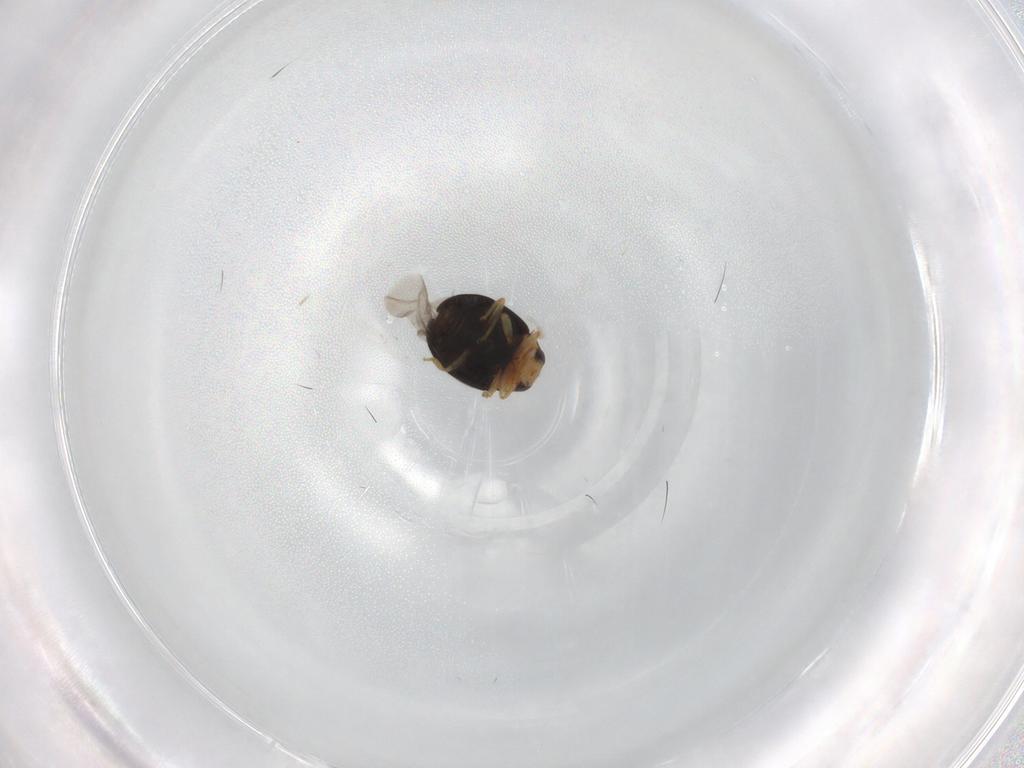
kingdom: Animalia
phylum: Arthropoda
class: Insecta
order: Coleoptera
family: Coccinellidae
